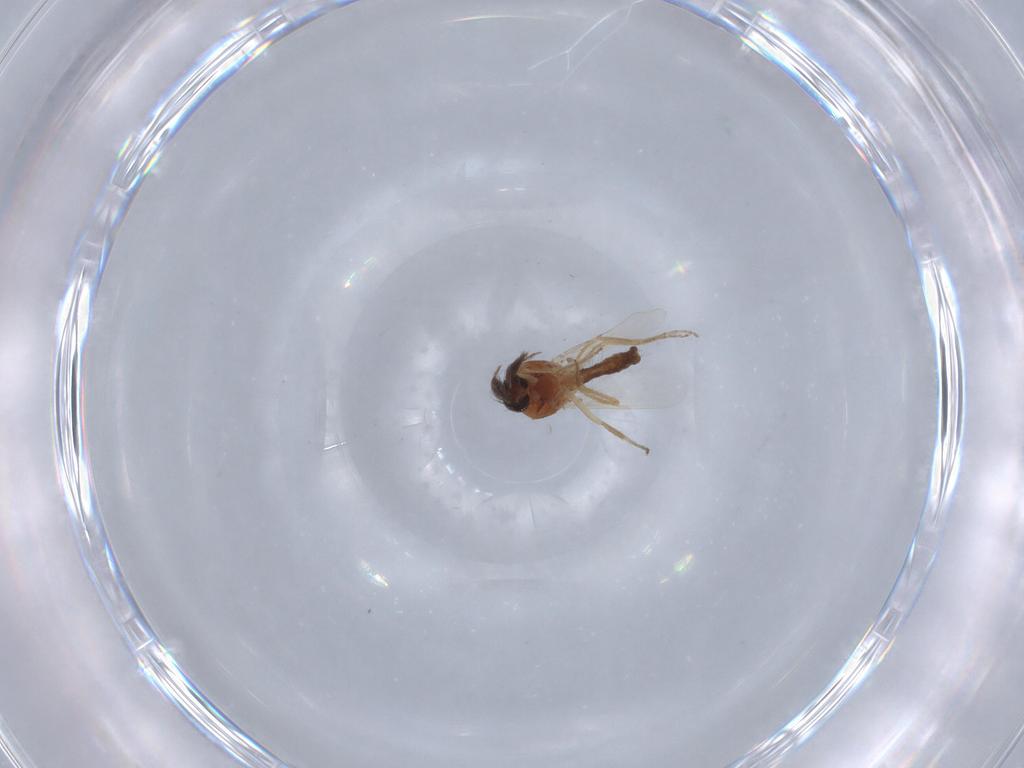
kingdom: Animalia
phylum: Arthropoda
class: Insecta
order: Diptera
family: Ceratopogonidae
